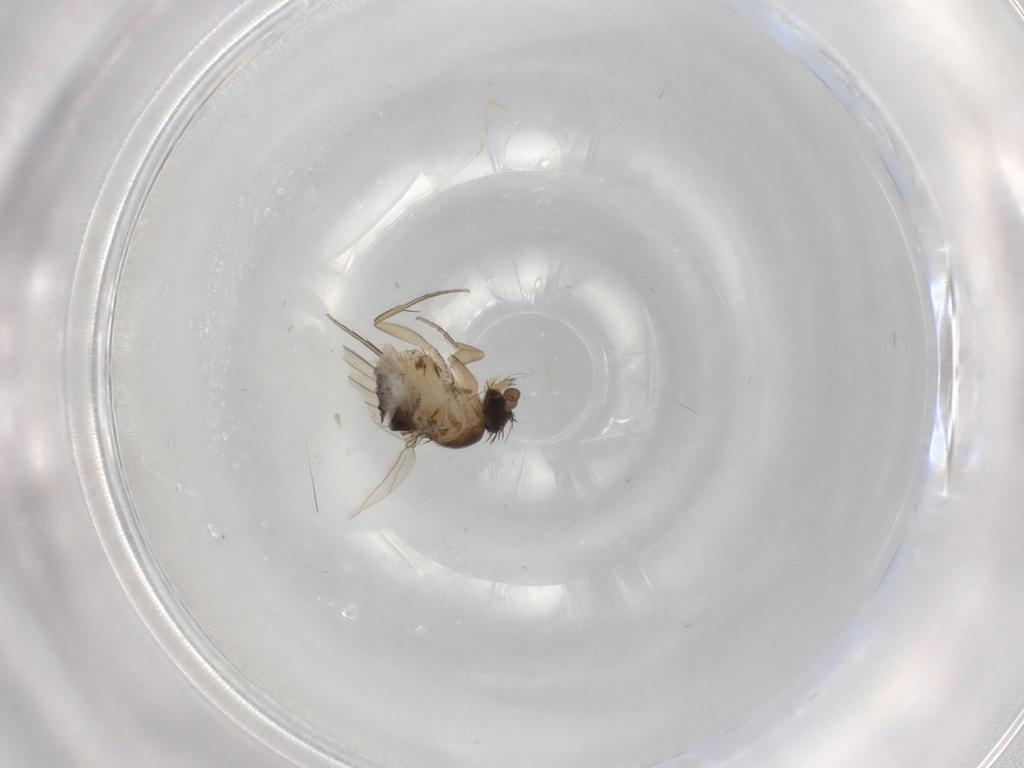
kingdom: Animalia
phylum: Arthropoda
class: Insecta
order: Diptera
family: Phoridae
